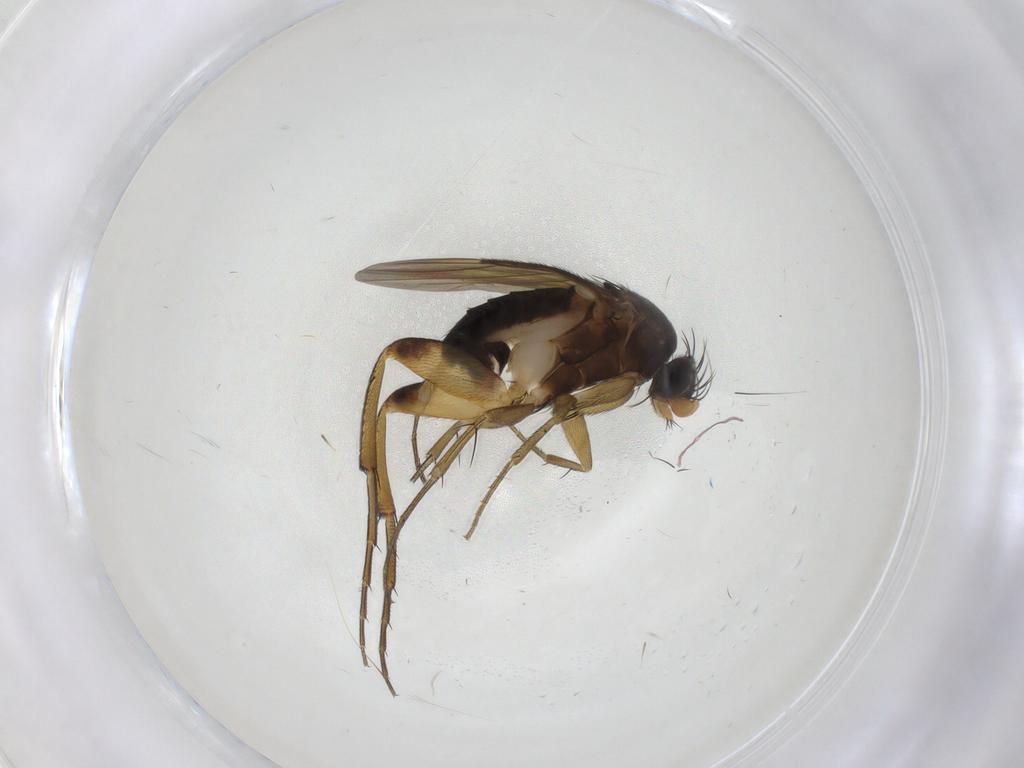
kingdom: Animalia
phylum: Arthropoda
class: Insecta
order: Diptera
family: Phoridae
